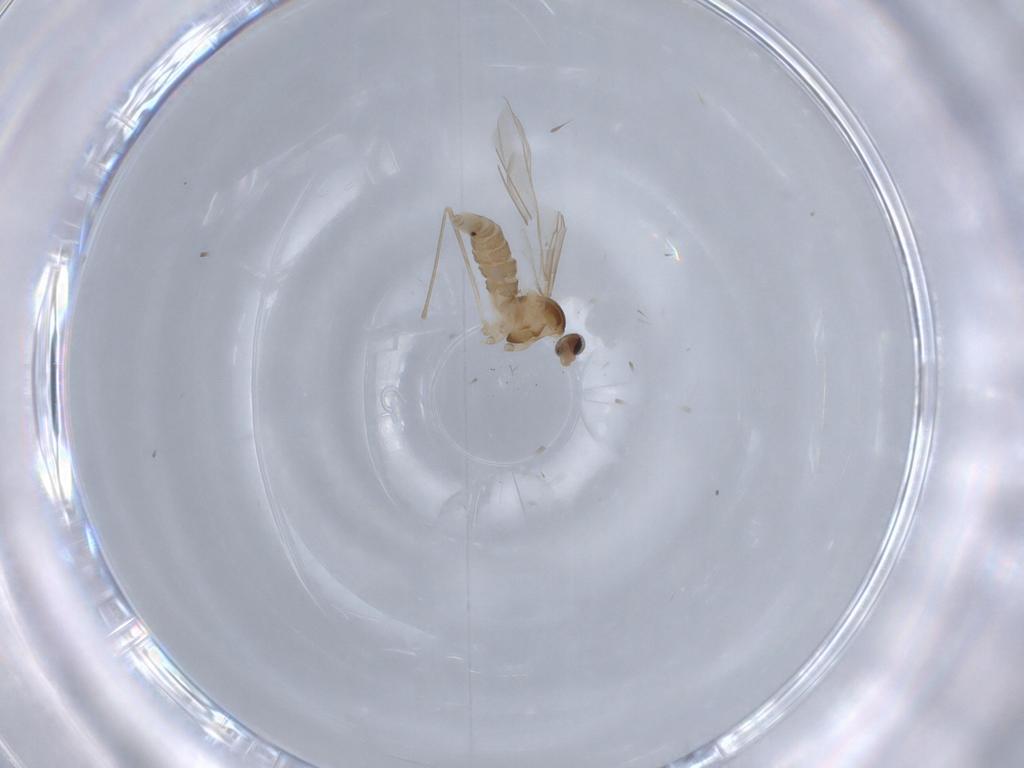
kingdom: Animalia
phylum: Arthropoda
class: Insecta
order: Diptera
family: Cecidomyiidae
